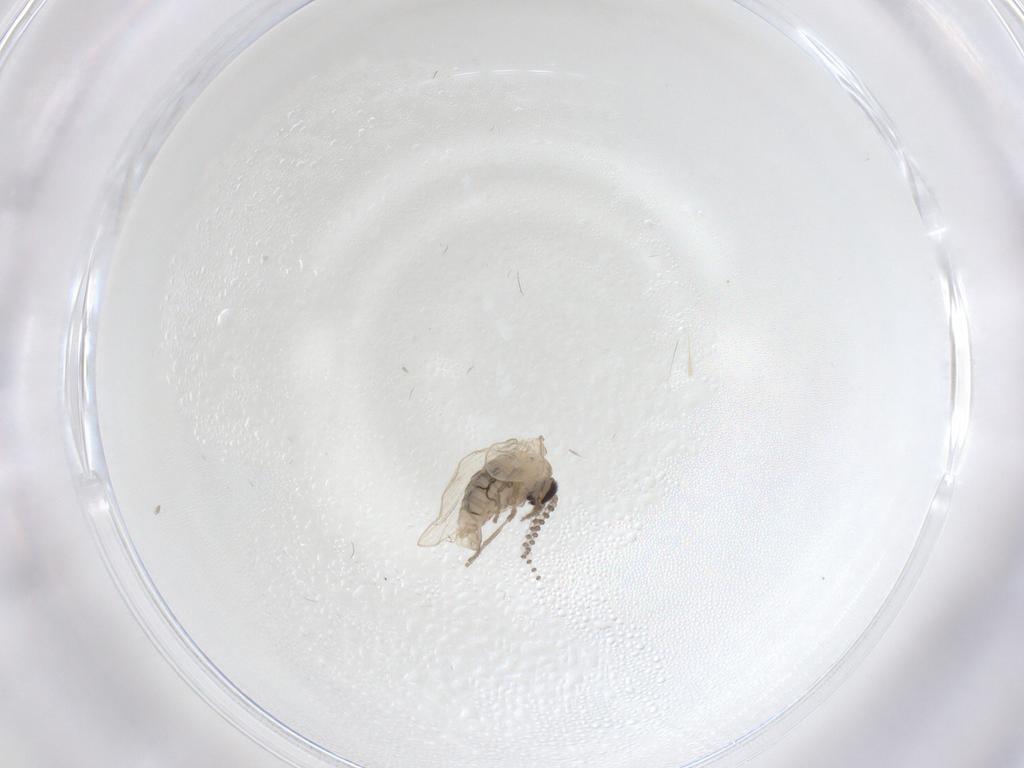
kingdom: Animalia
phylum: Arthropoda
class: Insecta
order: Diptera
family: Psychodidae
